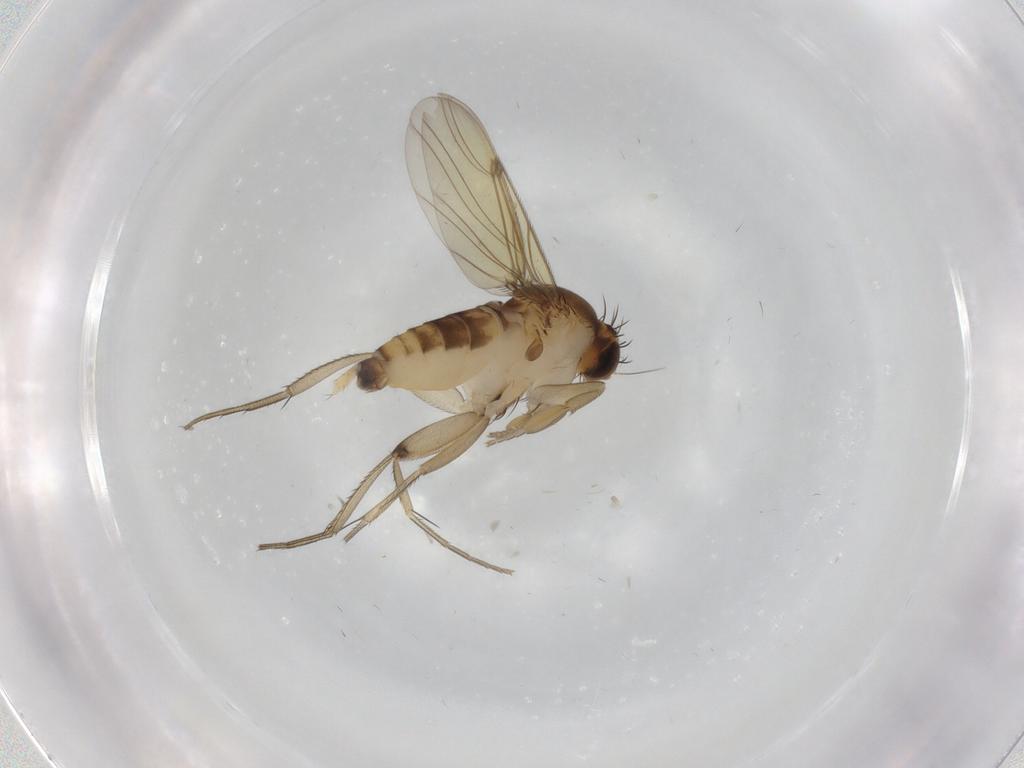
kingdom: Animalia
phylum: Arthropoda
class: Insecta
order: Diptera
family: Phoridae
